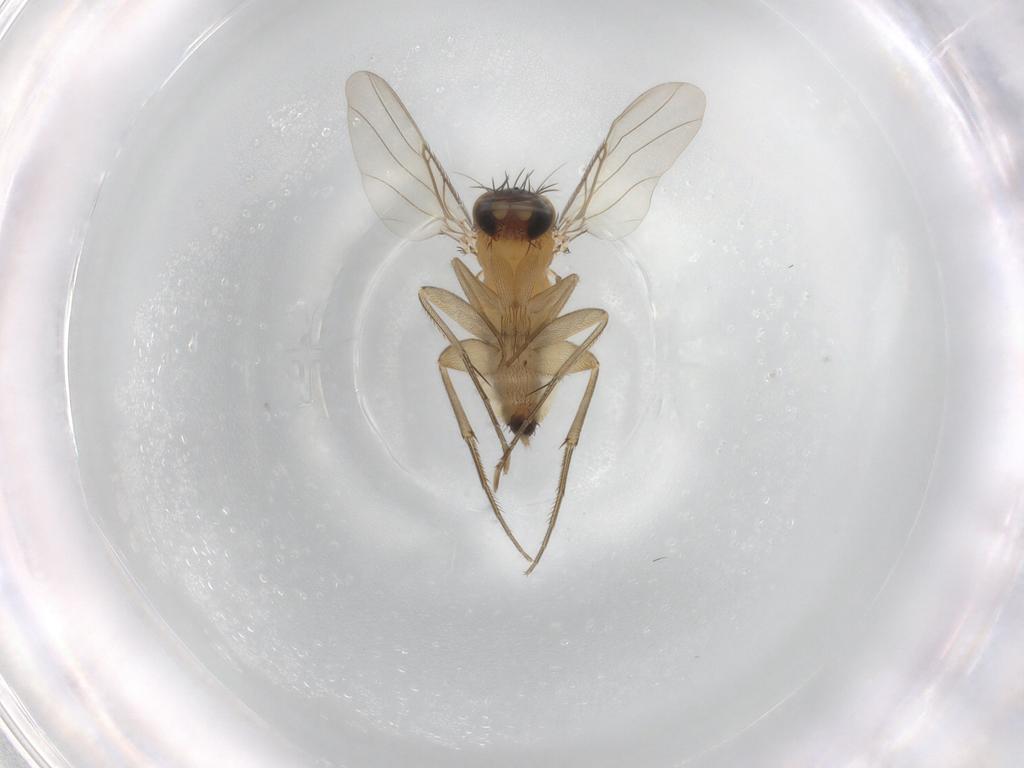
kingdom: Animalia
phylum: Arthropoda
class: Insecta
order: Diptera
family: Phoridae
